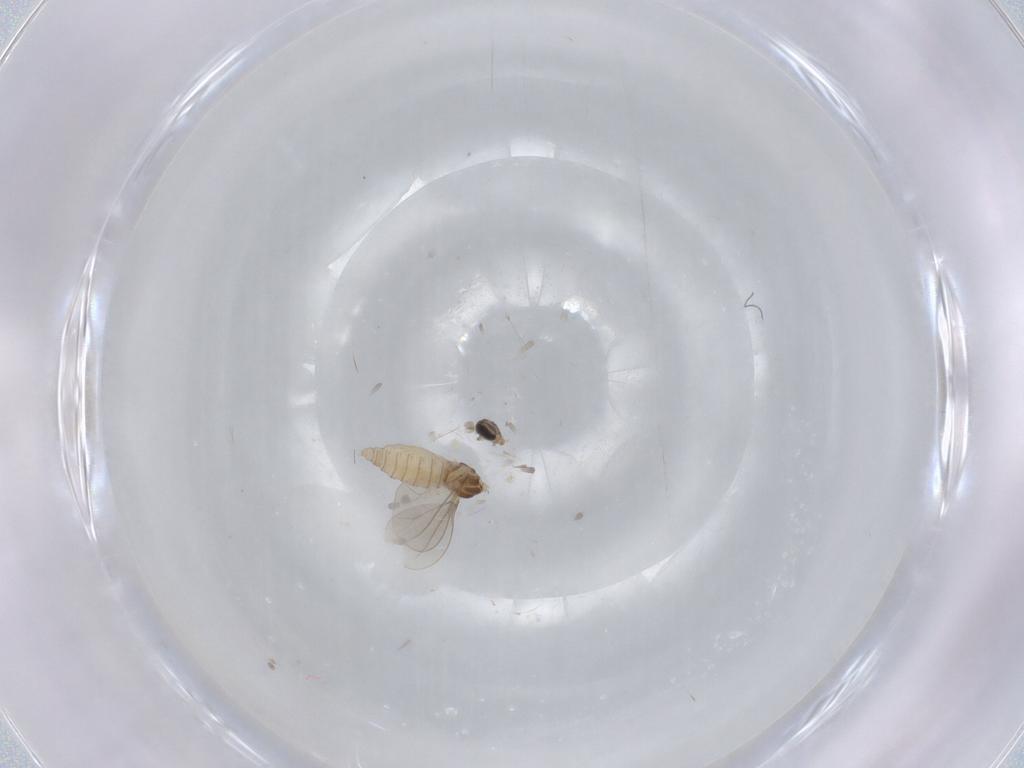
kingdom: Animalia
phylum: Arthropoda
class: Insecta
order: Diptera
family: Cecidomyiidae
